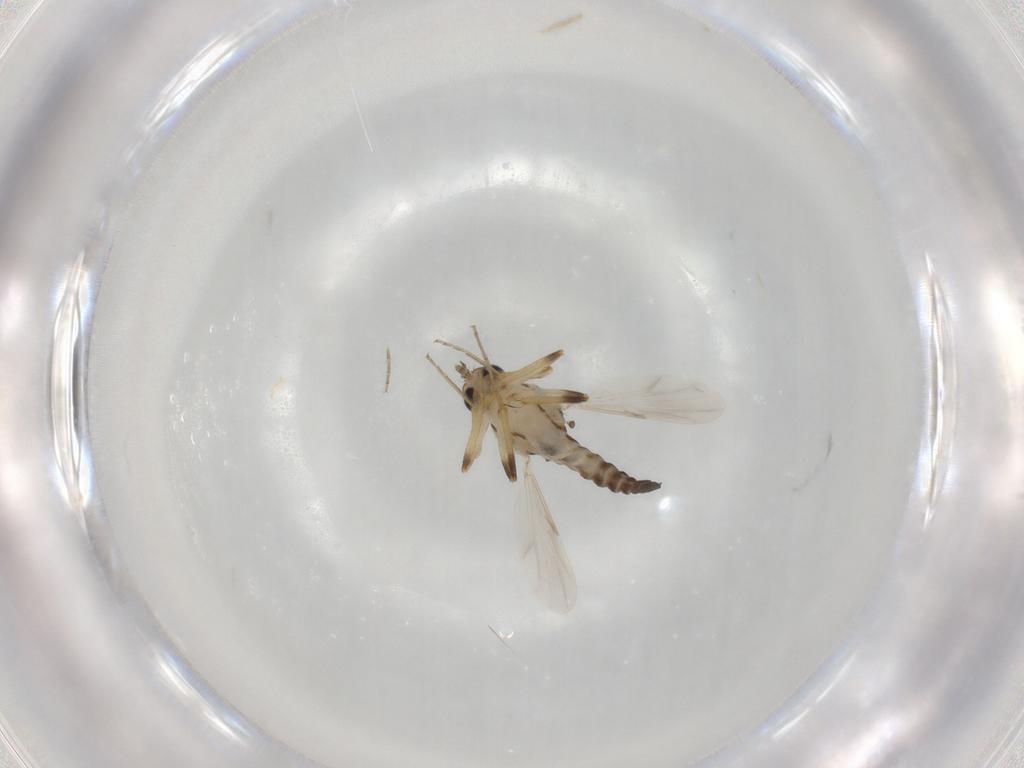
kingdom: Animalia
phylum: Arthropoda
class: Insecta
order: Diptera
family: Ceratopogonidae
